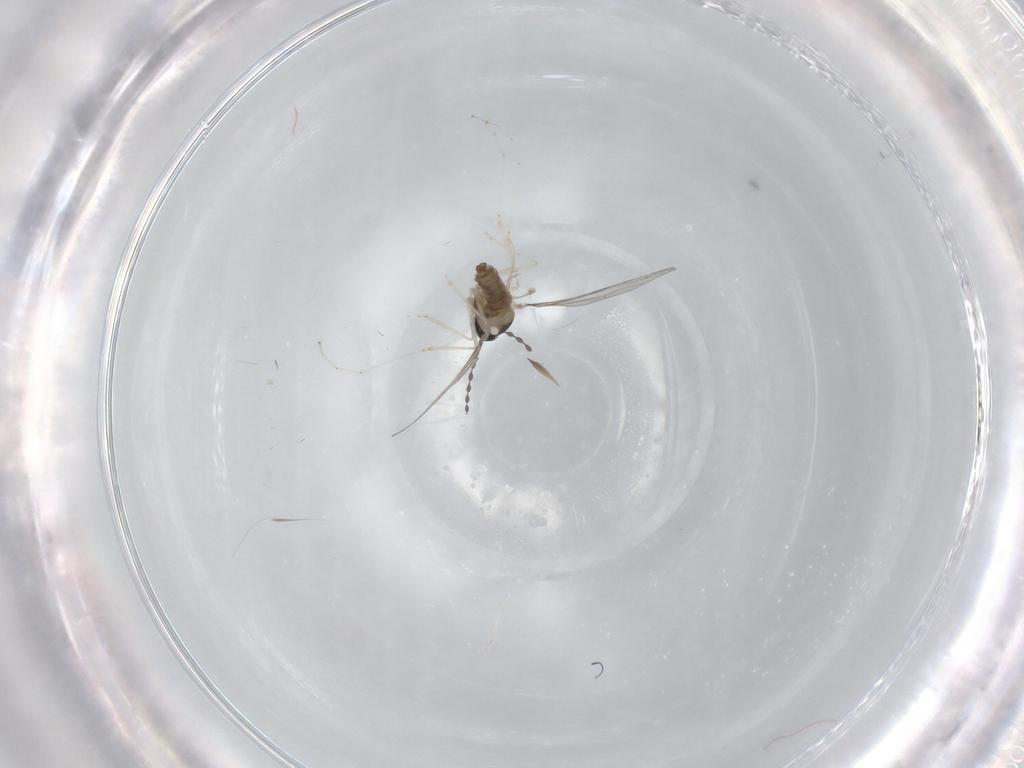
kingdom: Animalia
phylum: Arthropoda
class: Insecta
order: Diptera
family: Cecidomyiidae
